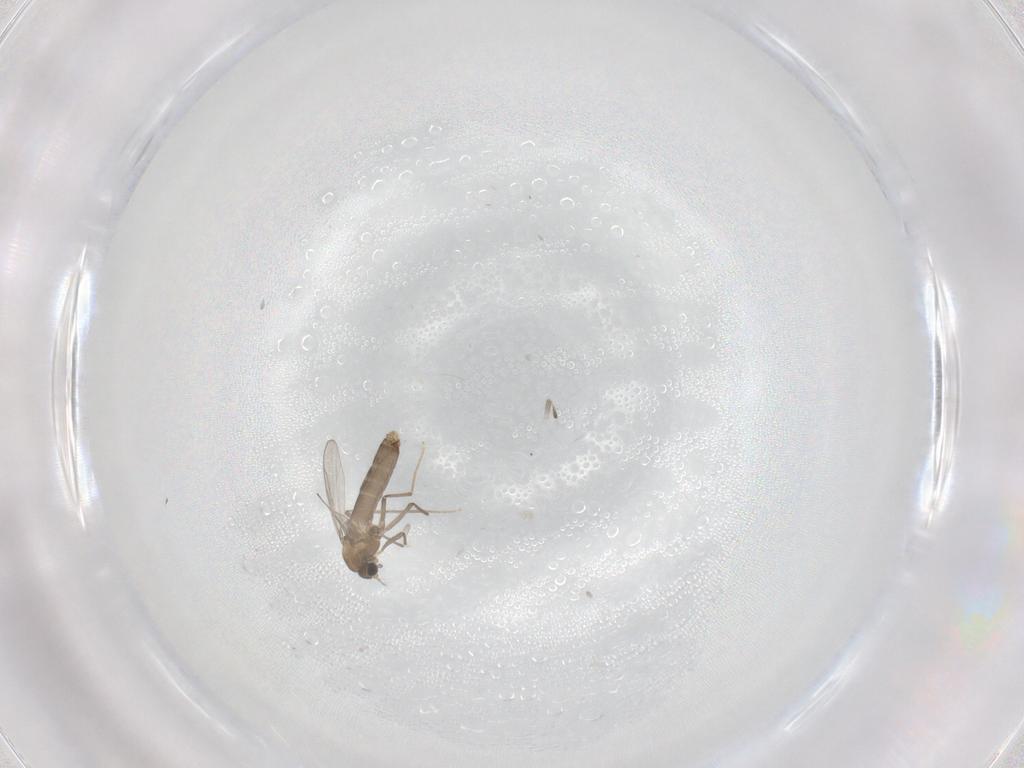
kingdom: Animalia
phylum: Arthropoda
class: Insecta
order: Diptera
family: Chironomidae
